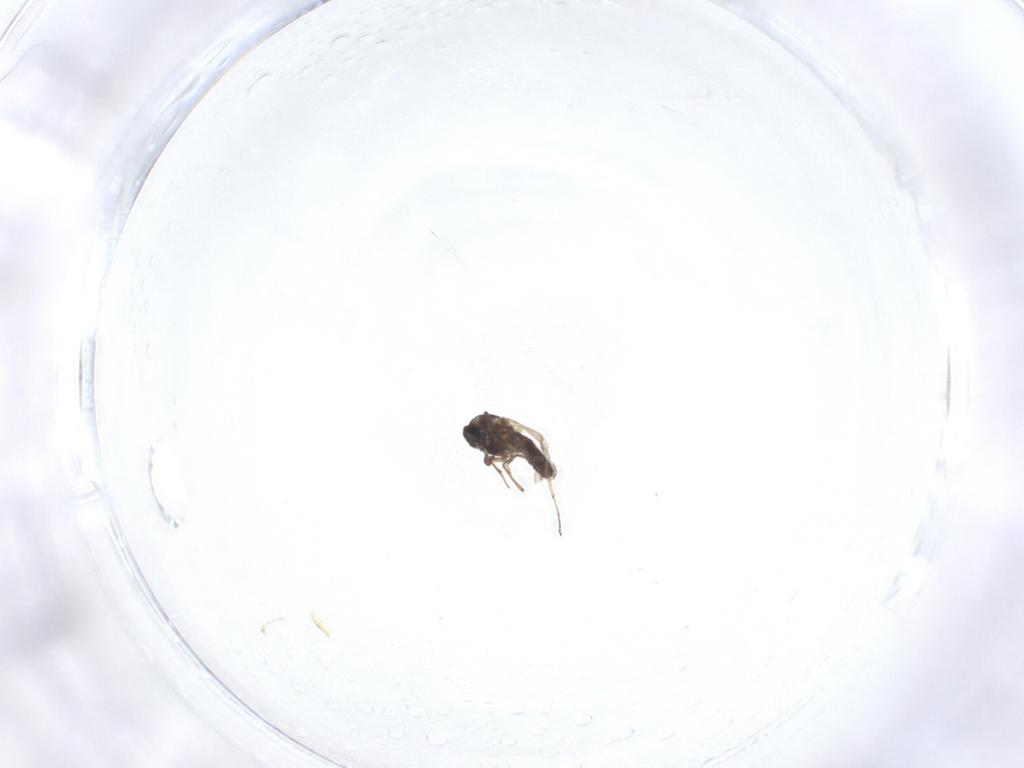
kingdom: Animalia
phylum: Arthropoda
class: Insecta
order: Diptera
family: Ceratopogonidae
